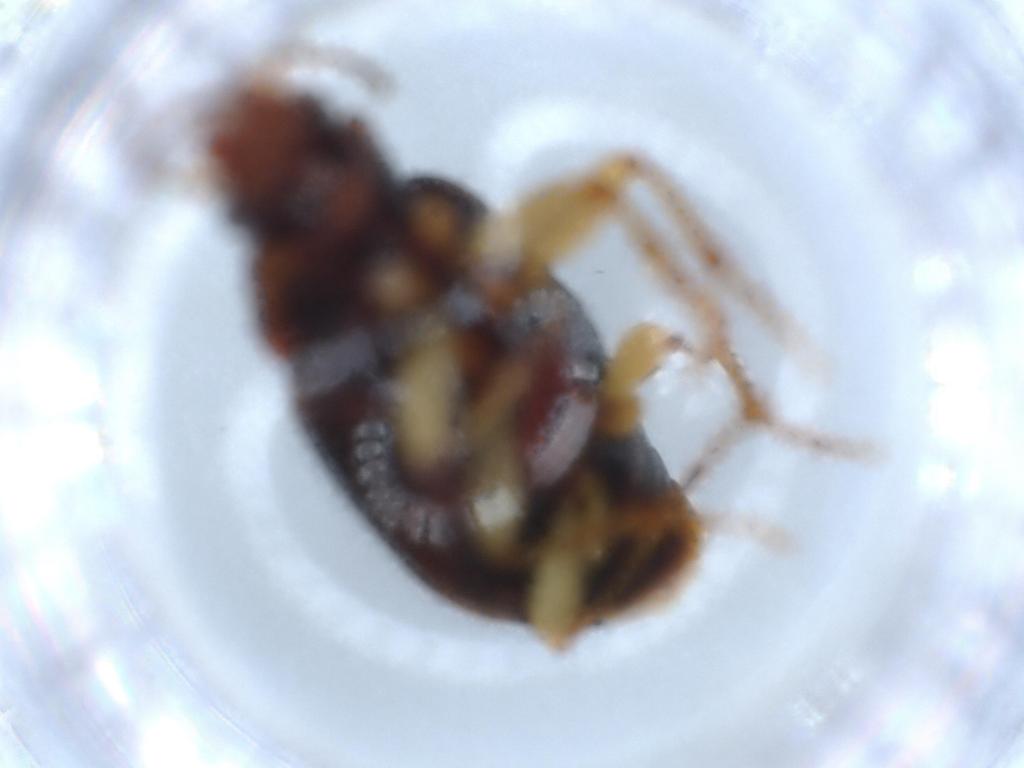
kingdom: Animalia
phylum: Arthropoda
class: Insecta
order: Coleoptera
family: Carabidae
